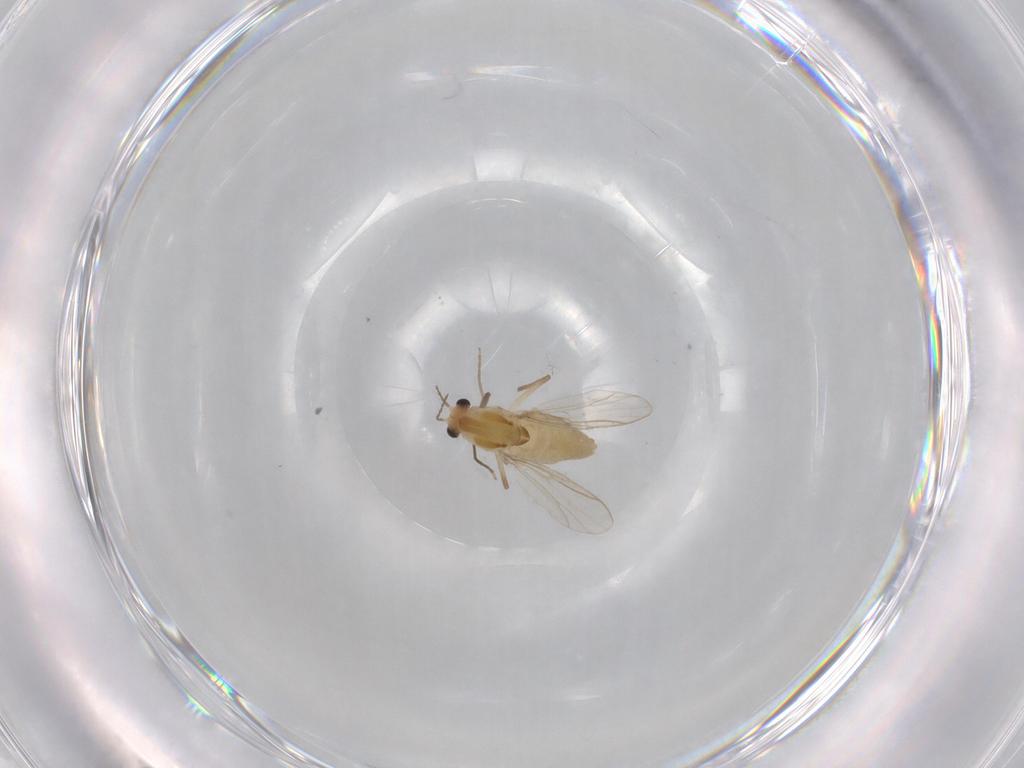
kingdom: Animalia
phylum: Arthropoda
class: Insecta
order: Diptera
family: Chironomidae
